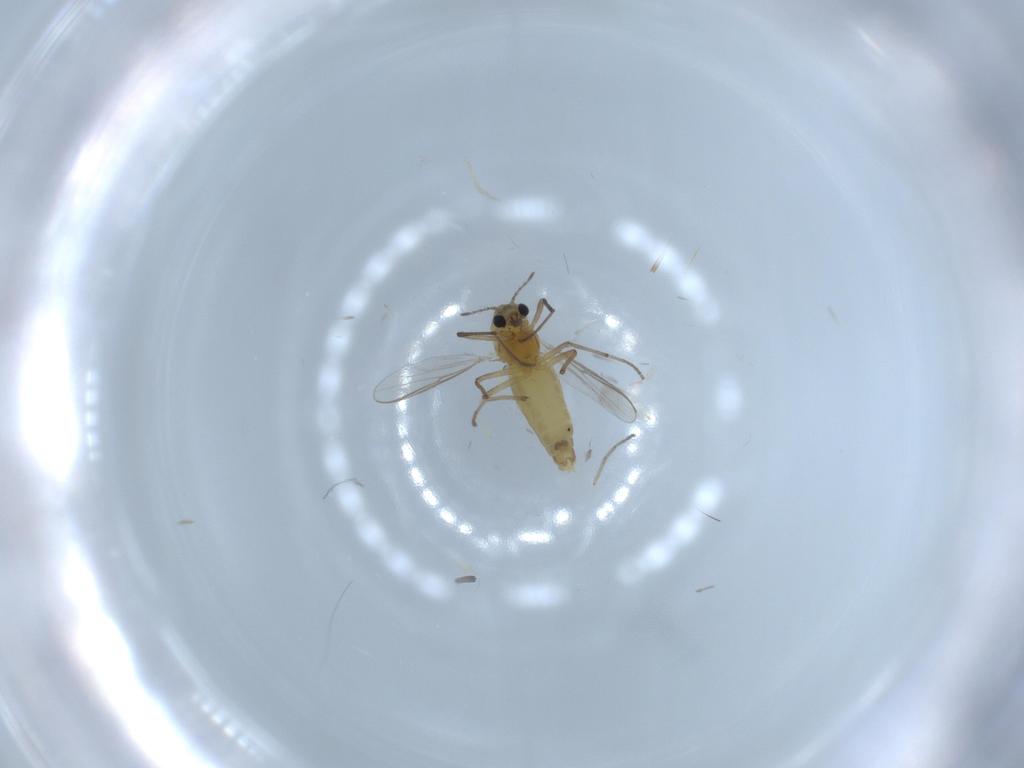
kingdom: Animalia
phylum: Arthropoda
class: Insecta
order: Diptera
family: Chironomidae
